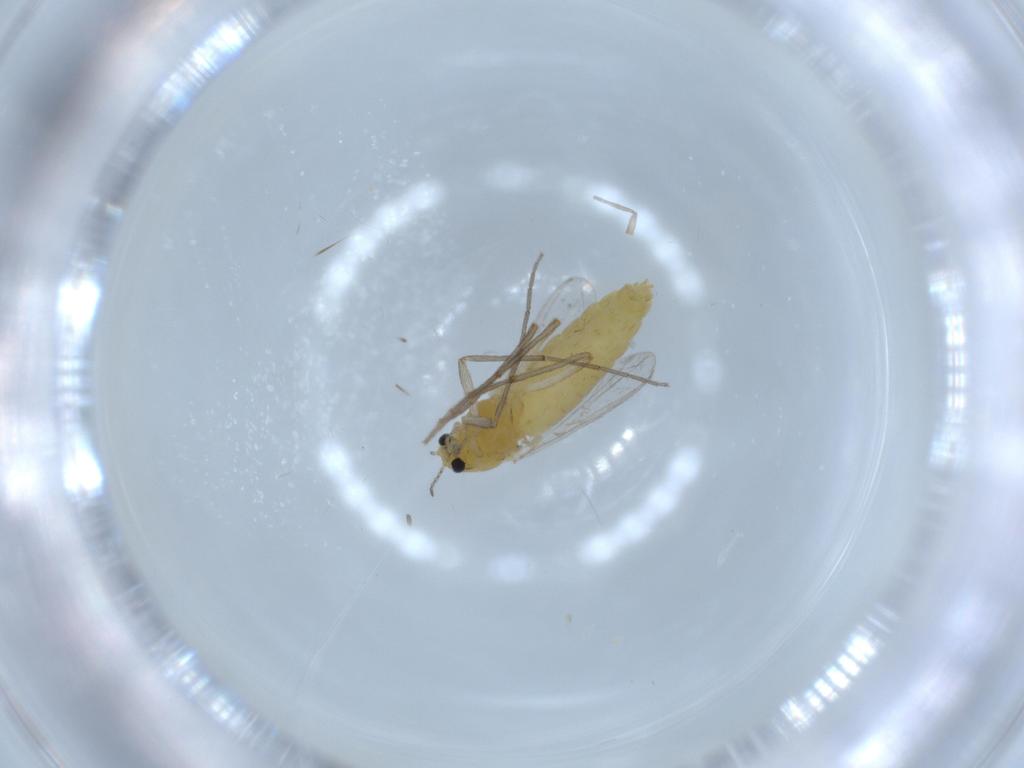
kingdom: Animalia
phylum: Arthropoda
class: Insecta
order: Diptera
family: Chironomidae
